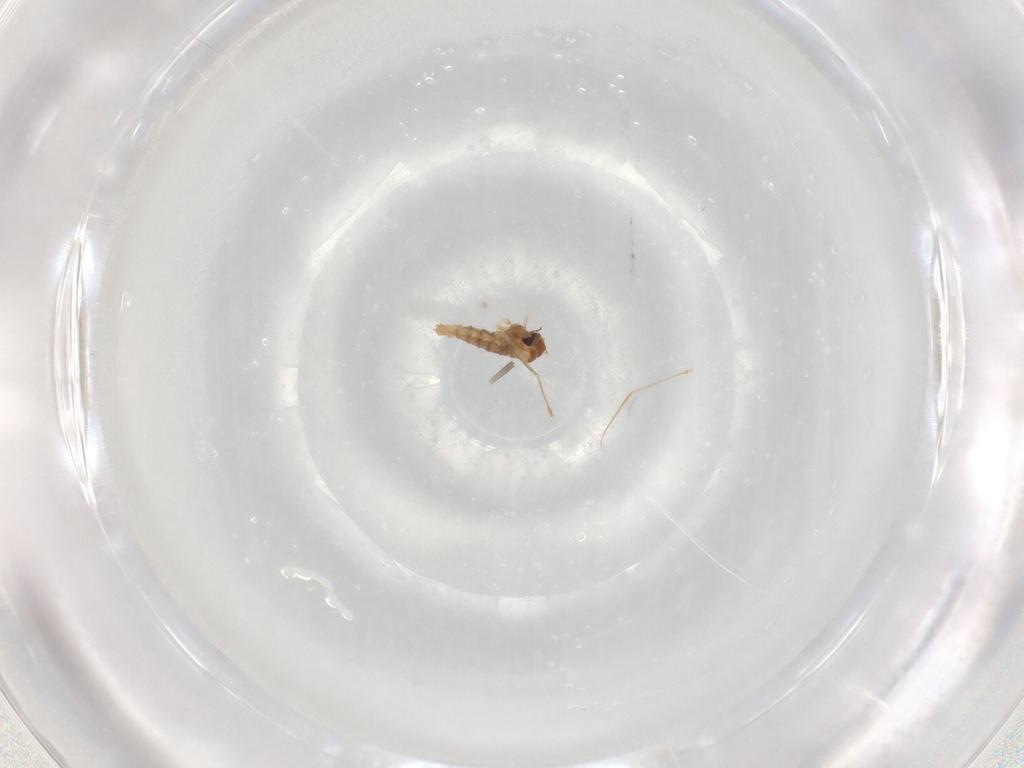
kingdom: Animalia
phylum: Arthropoda
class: Insecta
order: Diptera
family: Cecidomyiidae
